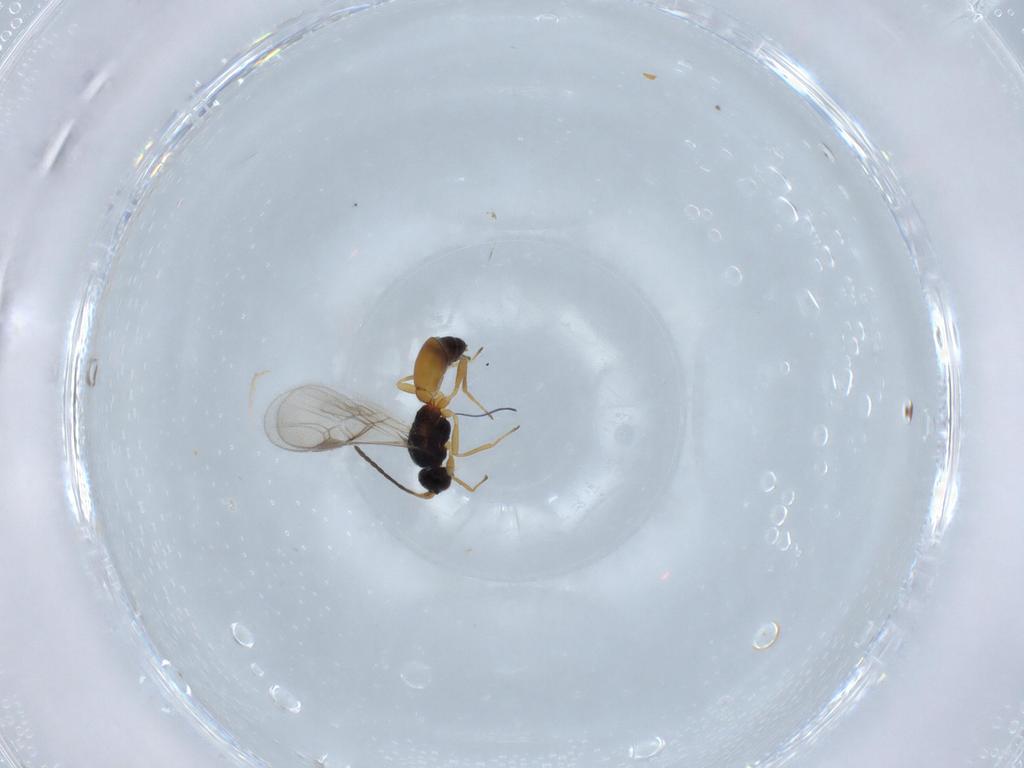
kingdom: Animalia
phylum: Arthropoda
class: Insecta
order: Hymenoptera
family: Braconidae
